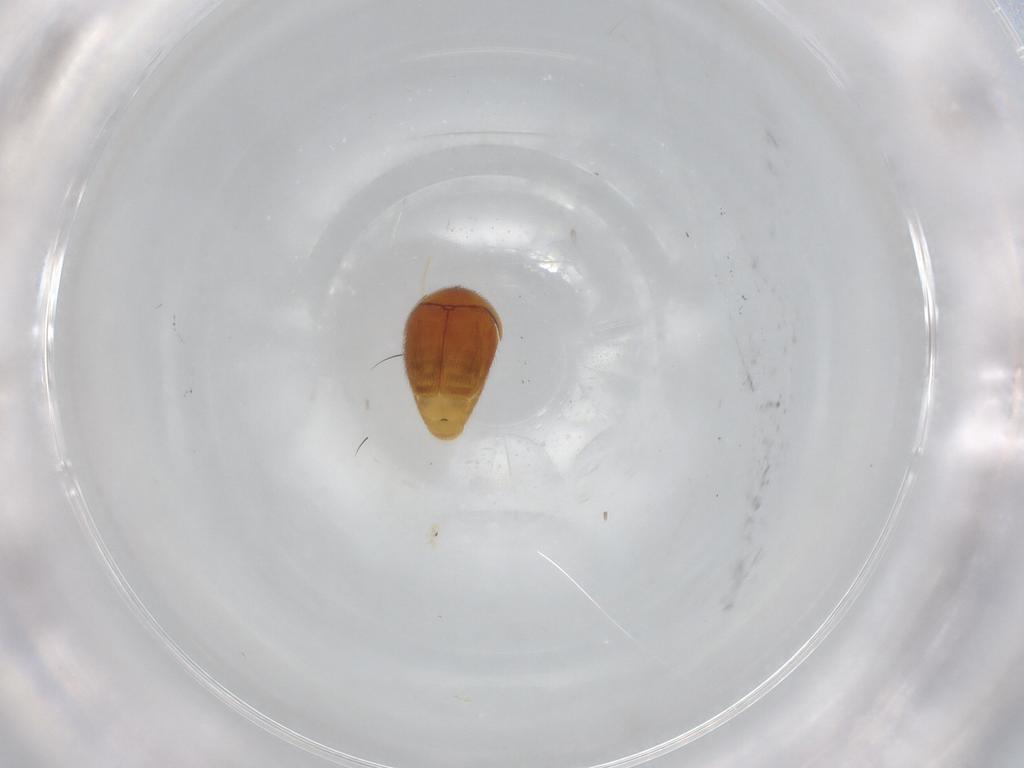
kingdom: Animalia
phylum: Arthropoda
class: Insecta
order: Coleoptera
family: Corylophidae
